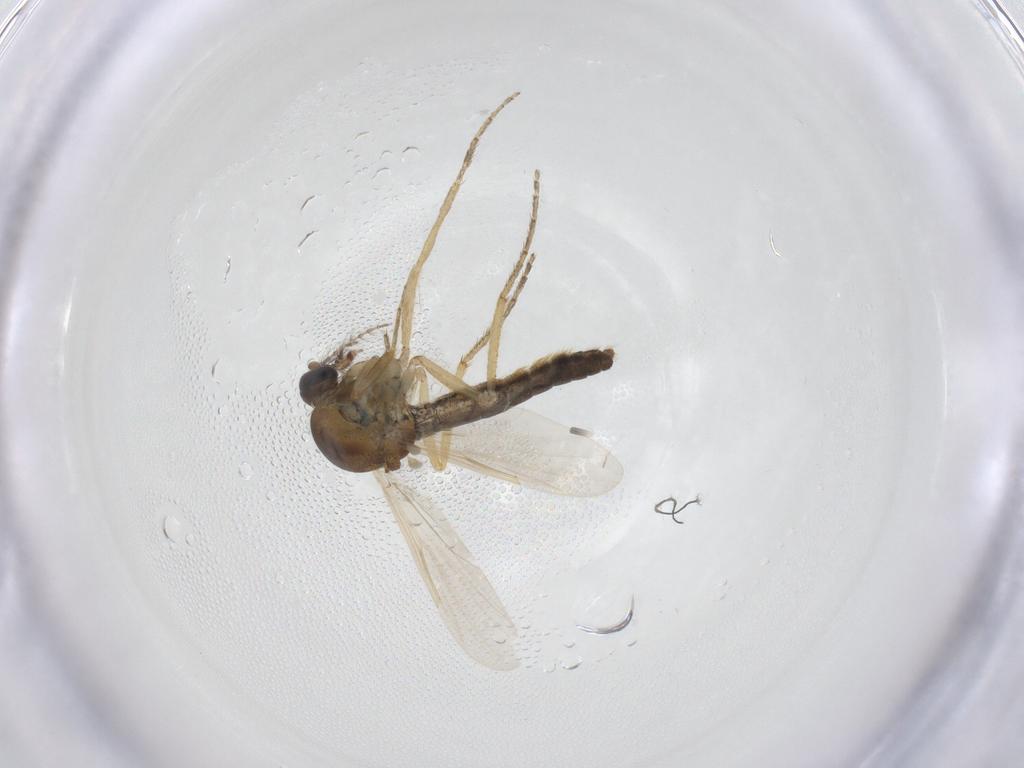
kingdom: Animalia
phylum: Arthropoda
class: Insecta
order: Diptera
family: Ceratopogonidae
